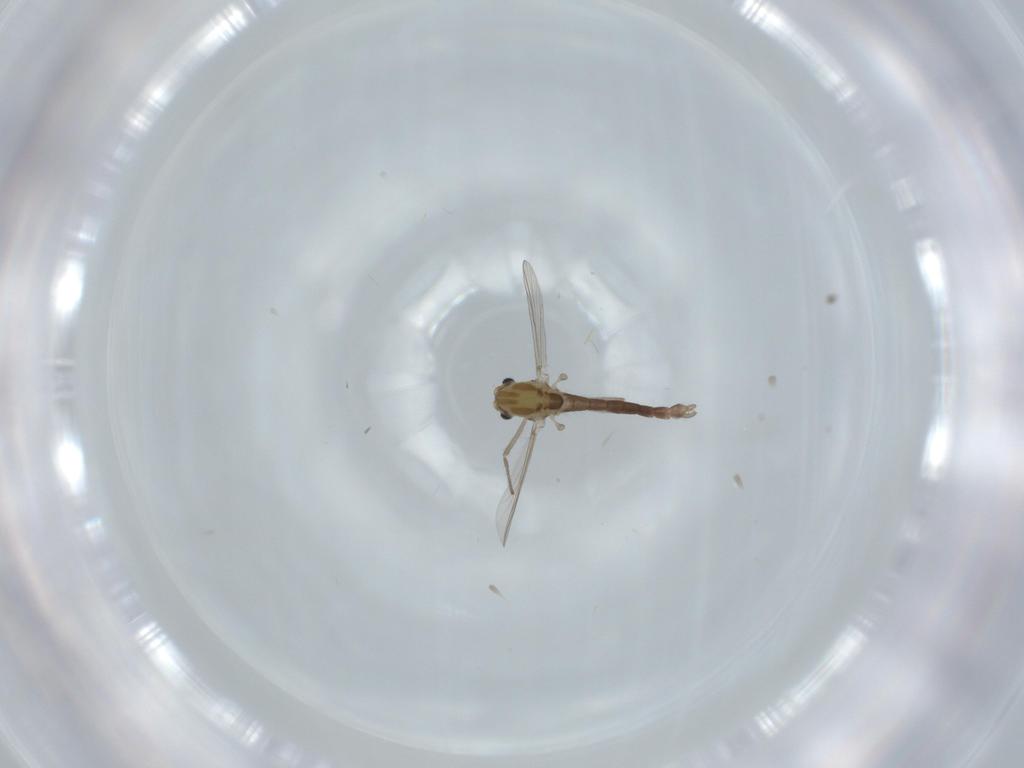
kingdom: Animalia
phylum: Arthropoda
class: Insecta
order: Diptera
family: Chironomidae
